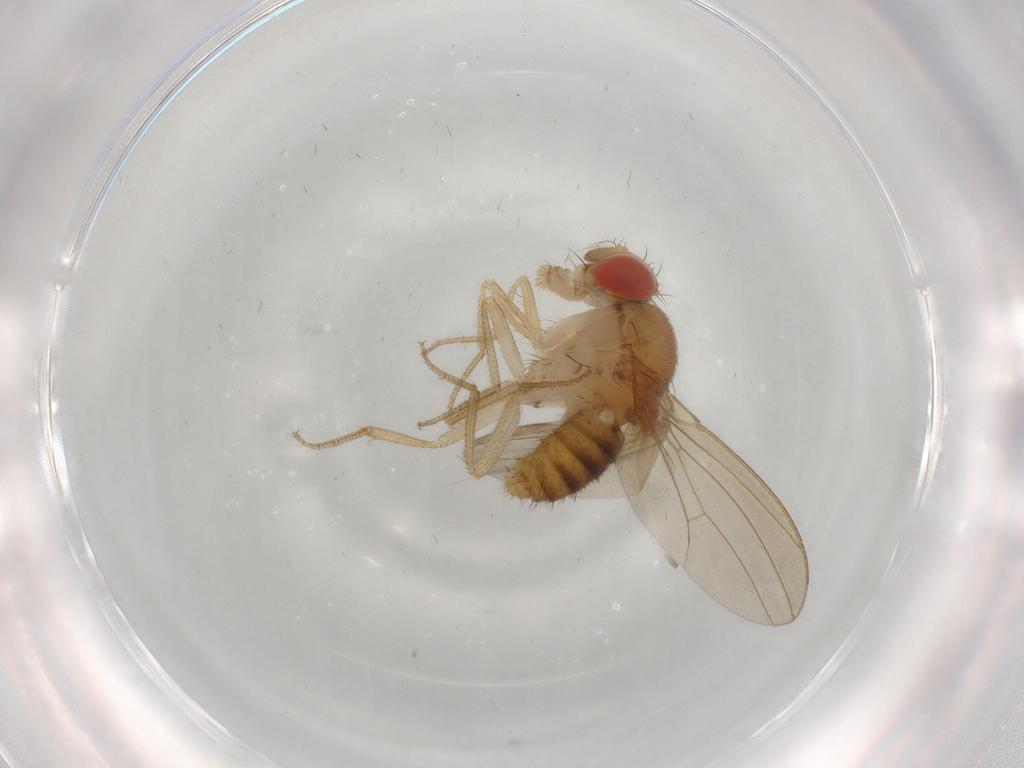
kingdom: Animalia
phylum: Arthropoda
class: Insecta
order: Diptera
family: Drosophilidae
